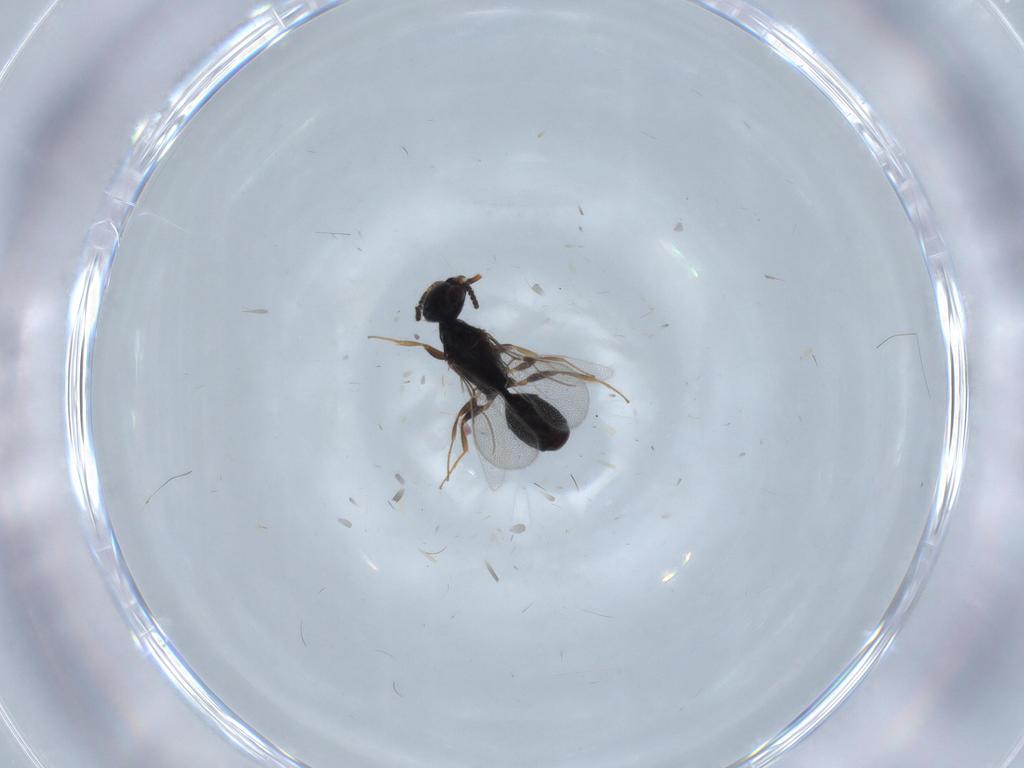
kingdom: Animalia
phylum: Arthropoda
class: Insecta
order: Hymenoptera
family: Bethylidae
